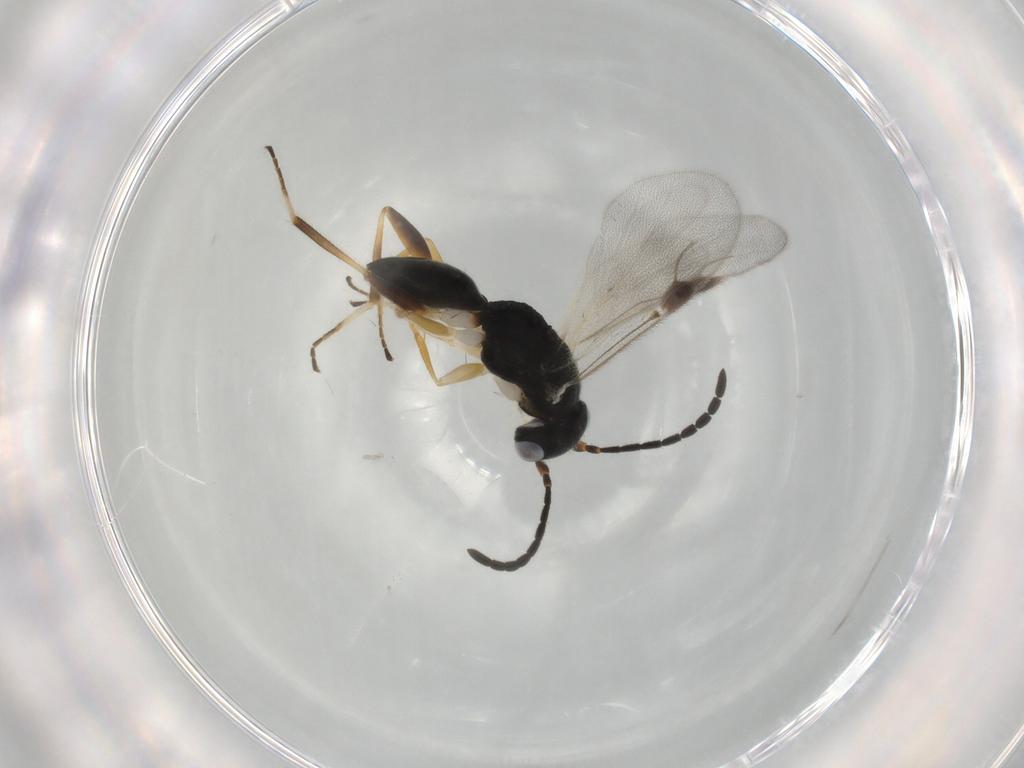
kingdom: Animalia
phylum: Arthropoda
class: Insecta
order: Hymenoptera
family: Dryinidae
